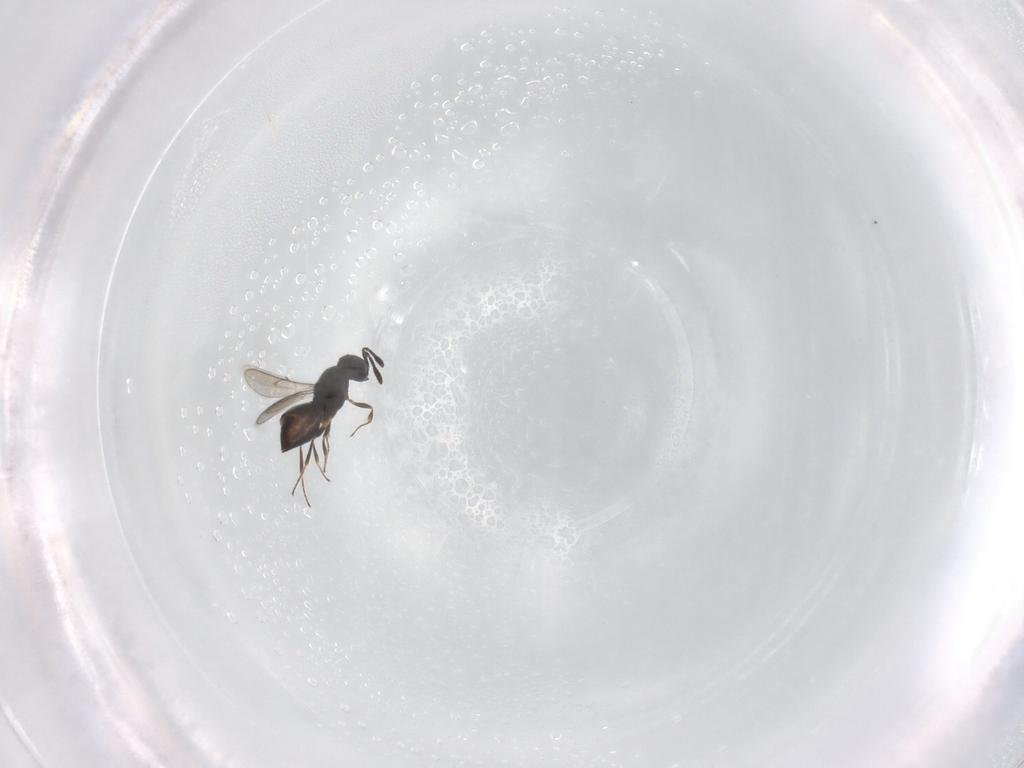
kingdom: Animalia
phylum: Arthropoda
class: Insecta
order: Hymenoptera
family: Scelionidae
